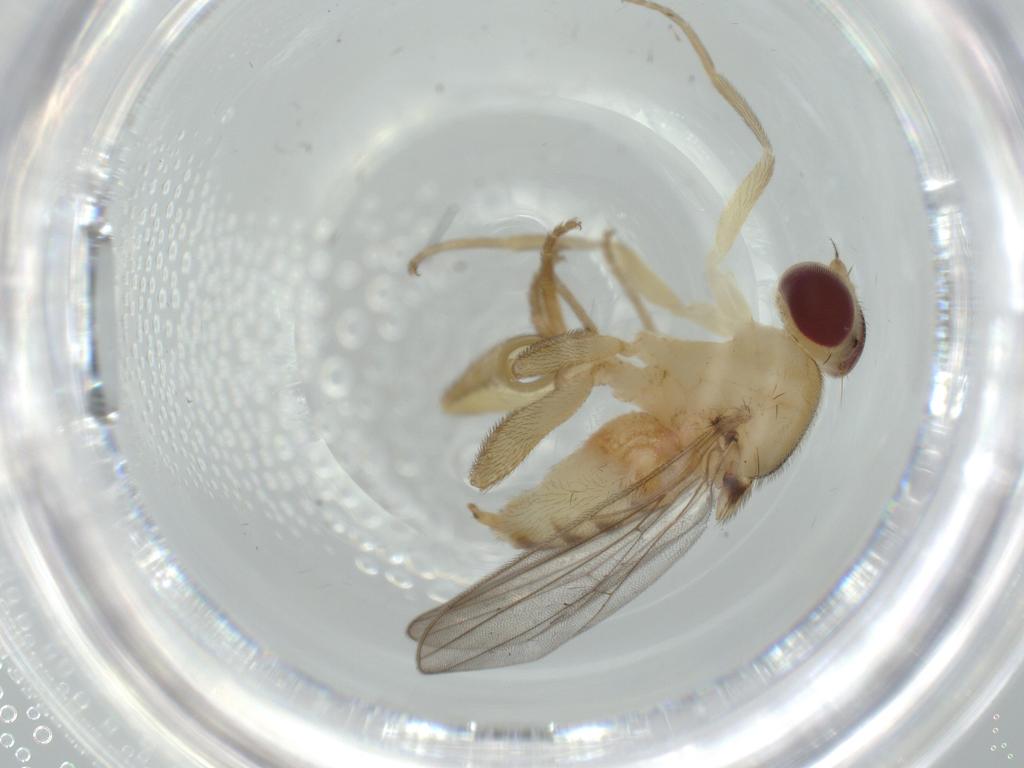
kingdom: Animalia
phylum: Arthropoda
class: Insecta
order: Diptera
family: Chloropidae
